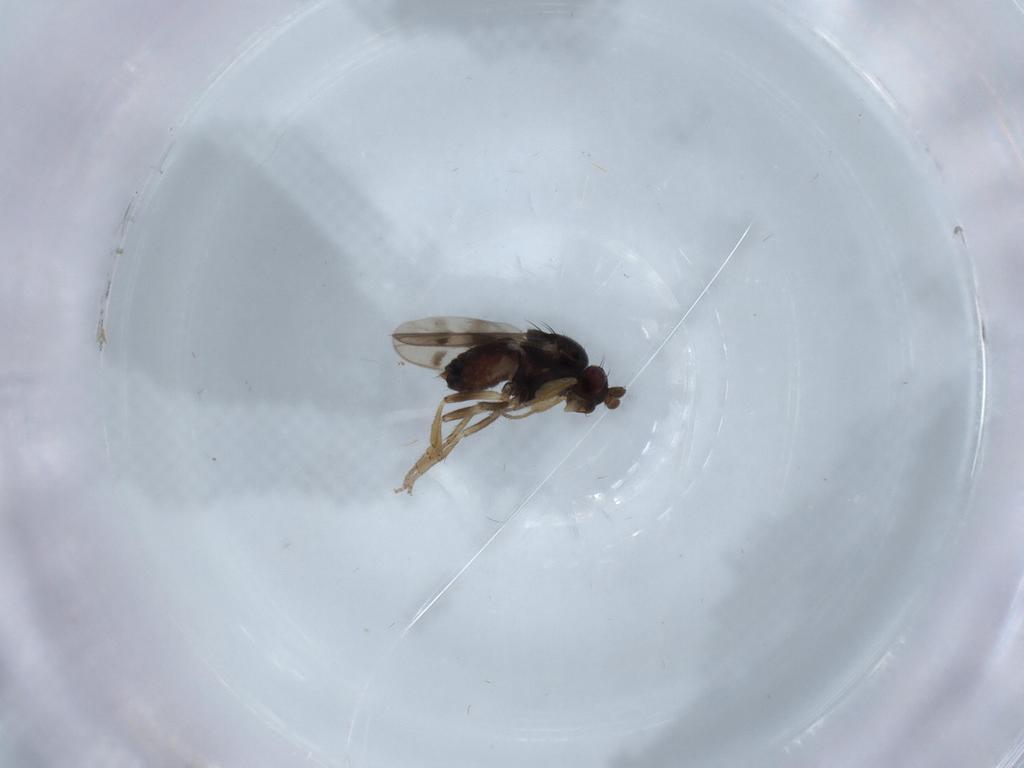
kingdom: Animalia
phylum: Arthropoda
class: Insecta
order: Diptera
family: Sphaeroceridae
